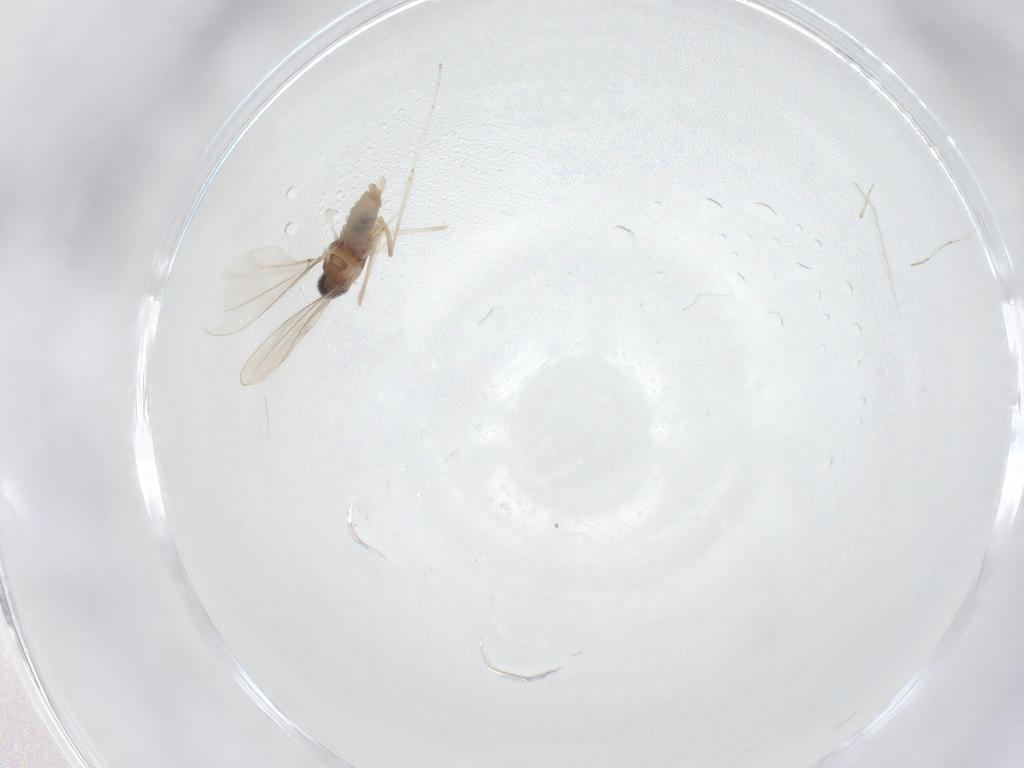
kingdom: Animalia
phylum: Arthropoda
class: Insecta
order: Diptera
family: Cecidomyiidae
